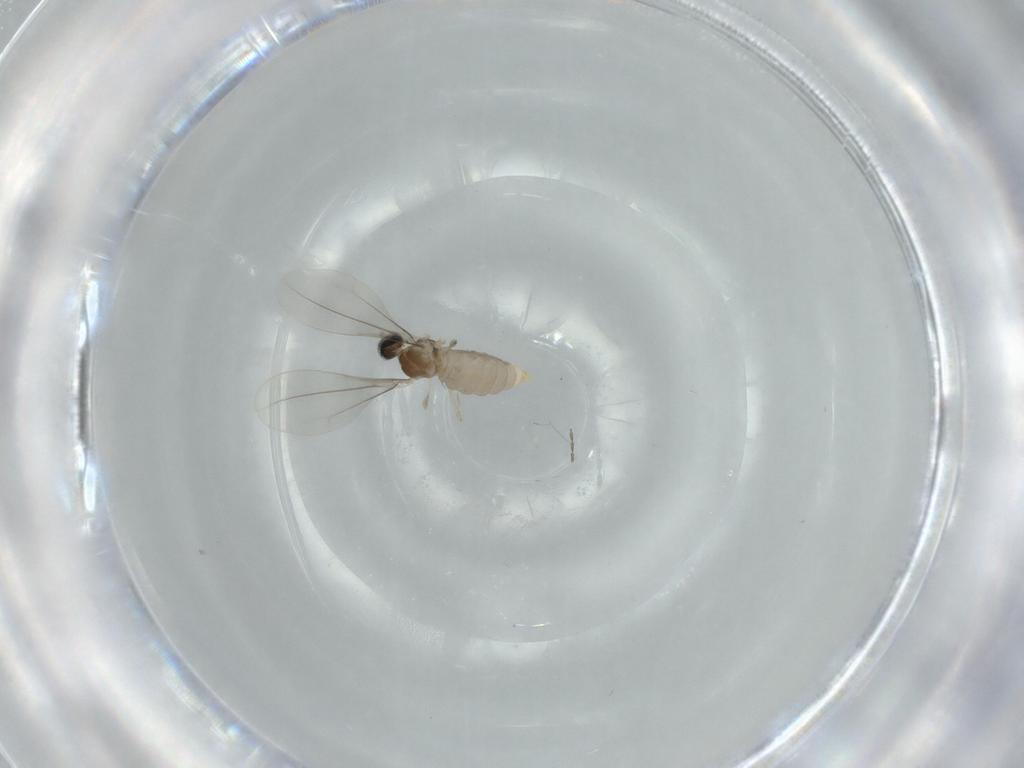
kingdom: Animalia
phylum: Arthropoda
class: Insecta
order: Diptera
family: Cecidomyiidae
